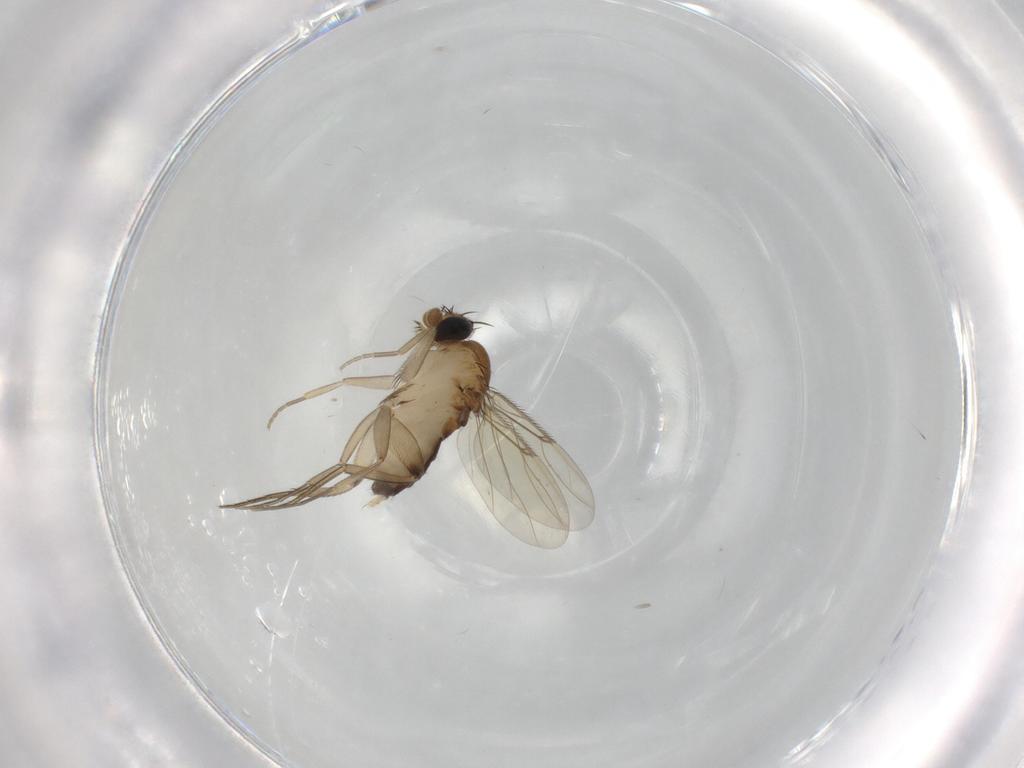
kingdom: Animalia
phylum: Arthropoda
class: Insecta
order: Diptera
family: Phoridae
